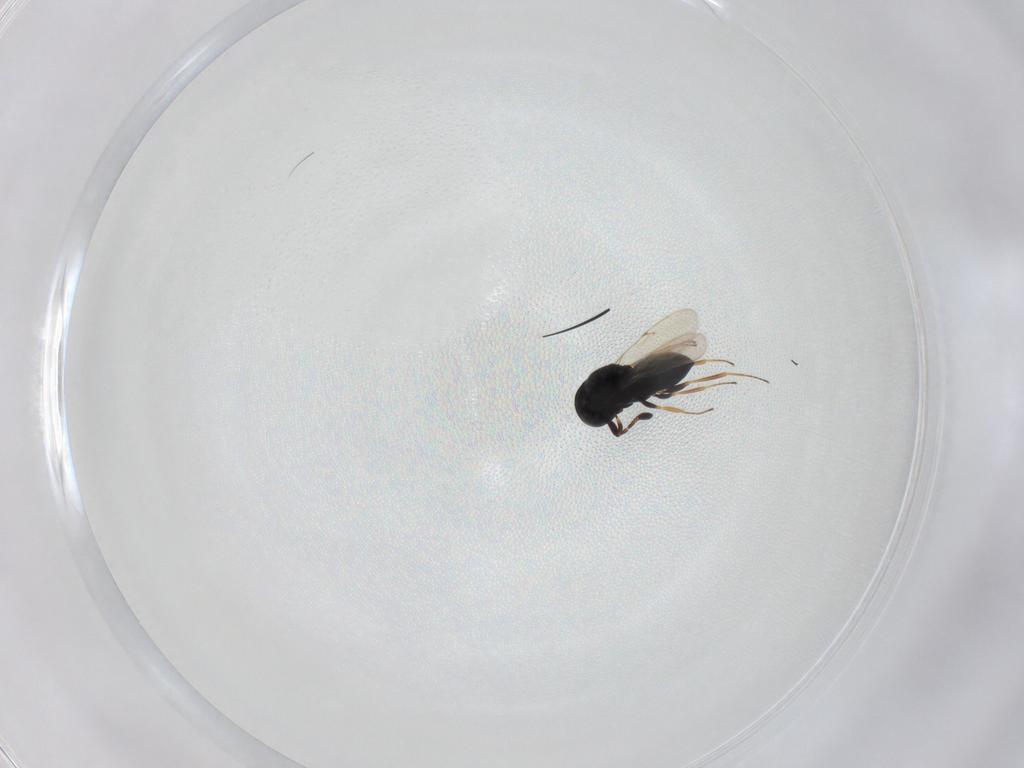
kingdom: Animalia
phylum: Arthropoda
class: Insecta
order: Hymenoptera
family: Scelionidae
